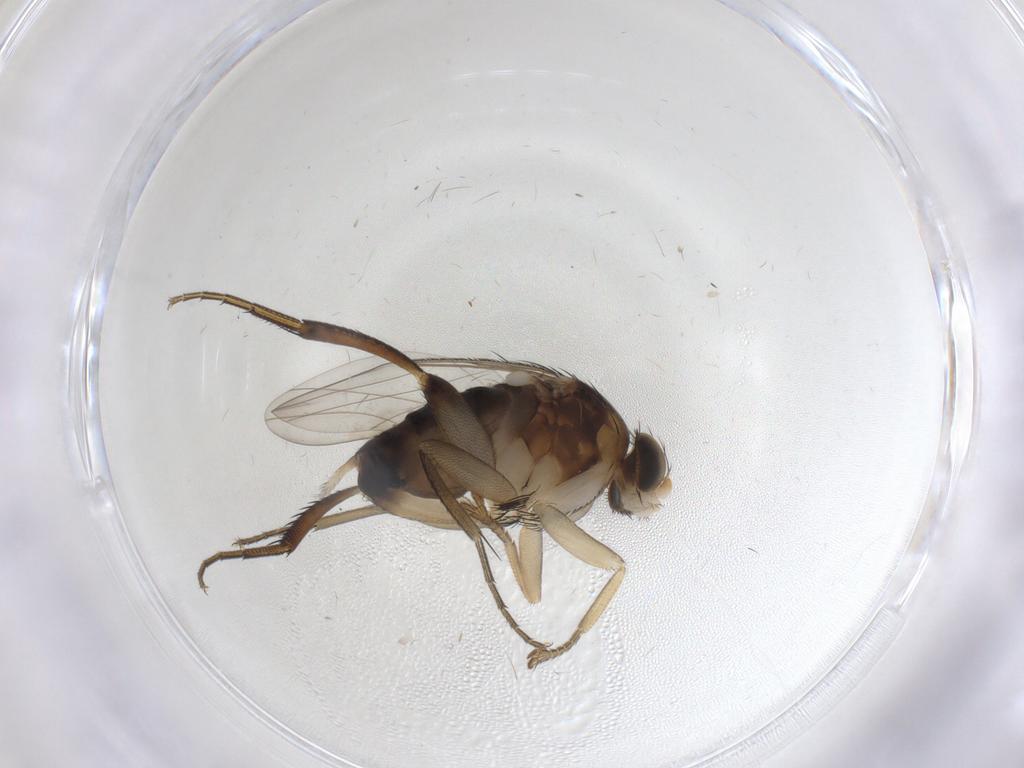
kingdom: Animalia
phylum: Arthropoda
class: Insecta
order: Diptera
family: Phoridae
